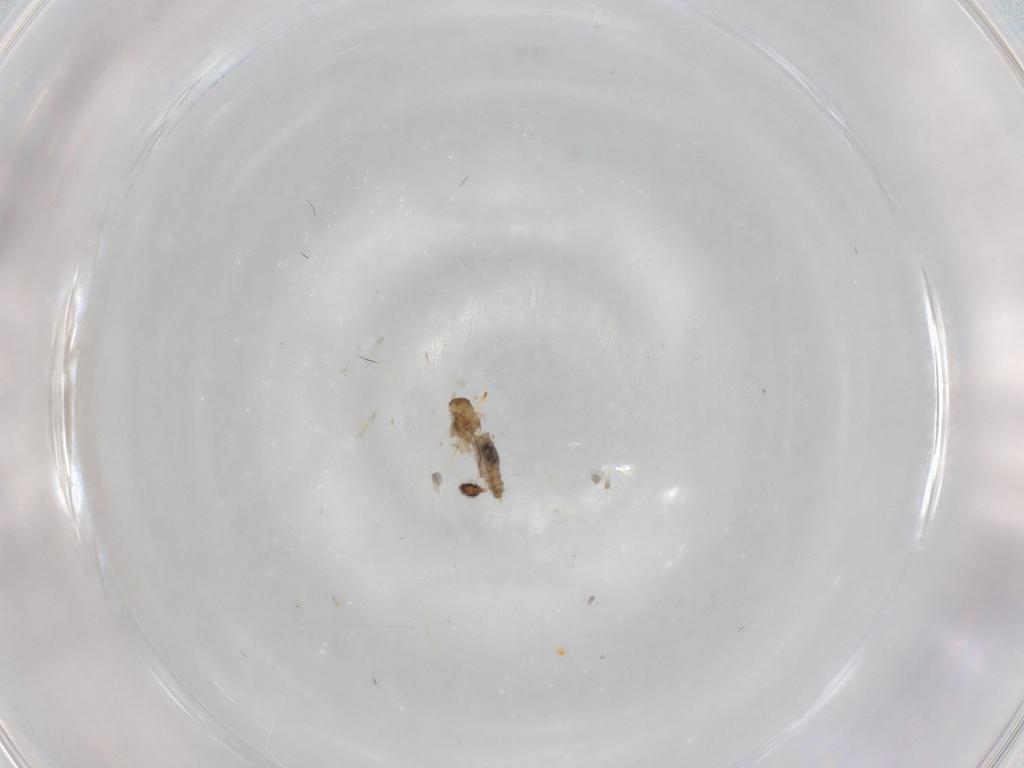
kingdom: Animalia
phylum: Arthropoda
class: Insecta
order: Diptera
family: Cecidomyiidae
